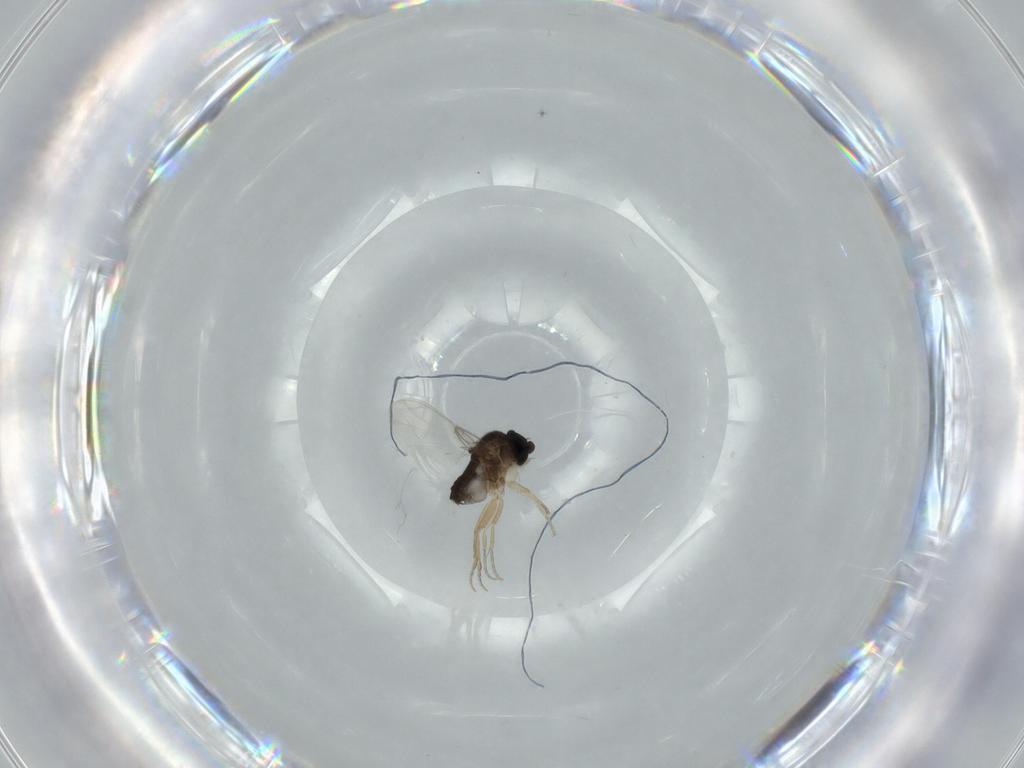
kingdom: Animalia
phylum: Arthropoda
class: Insecta
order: Diptera
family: Phoridae
